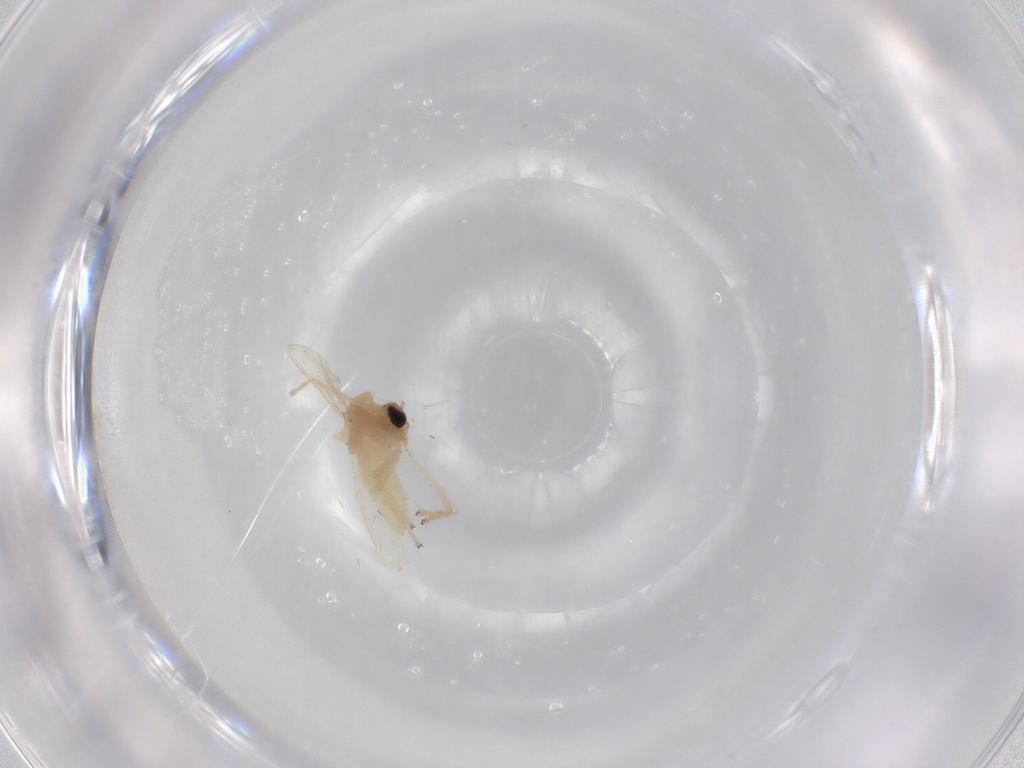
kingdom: Animalia
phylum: Arthropoda
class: Insecta
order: Diptera
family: Chironomidae
